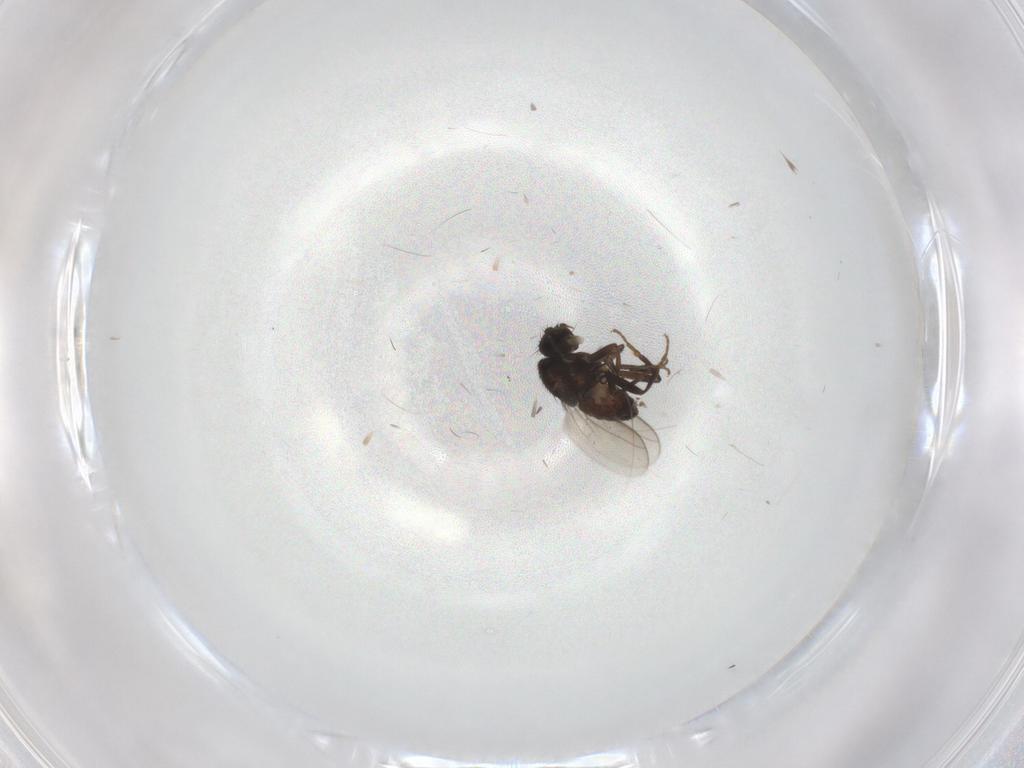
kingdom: Animalia
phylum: Arthropoda
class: Insecta
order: Diptera
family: Sphaeroceridae
